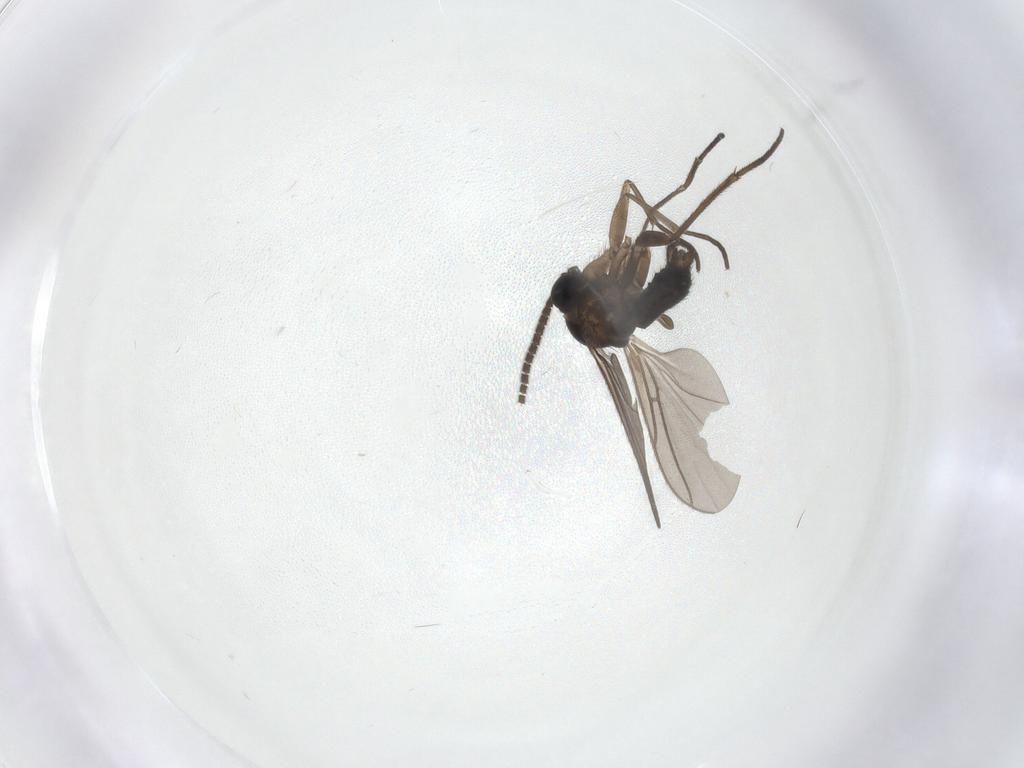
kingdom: Animalia
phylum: Arthropoda
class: Insecta
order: Diptera
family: Sciaridae
